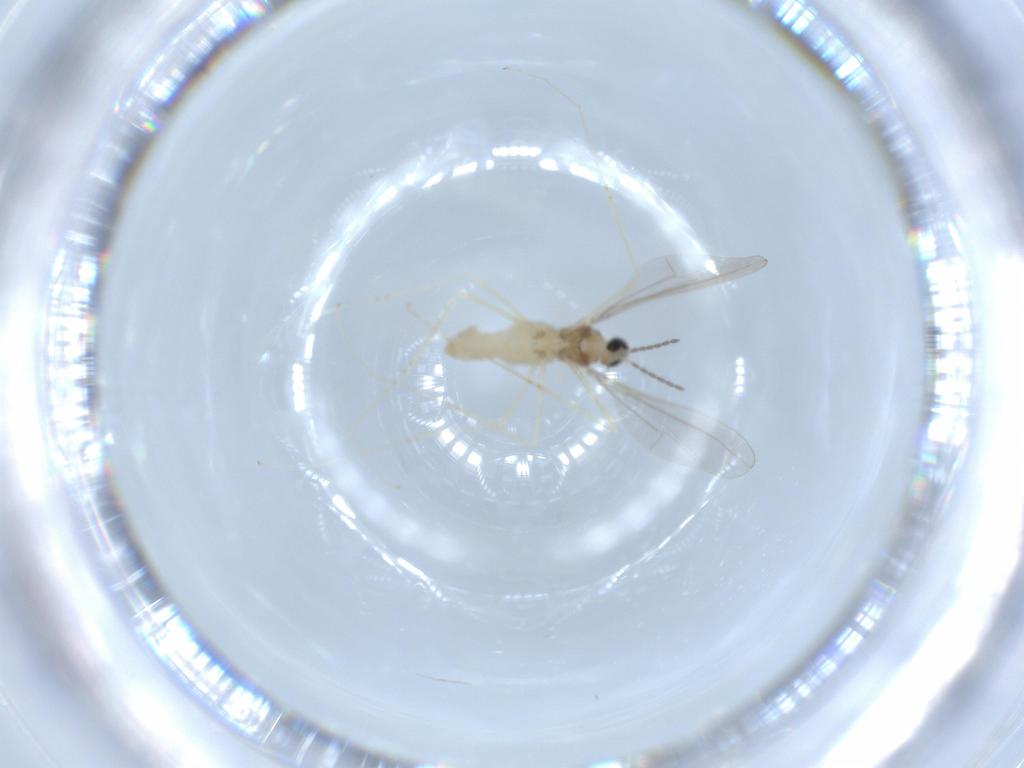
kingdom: Animalia
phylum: Arthropoda
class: Insecta
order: Diptera
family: Cecidomyiidae
